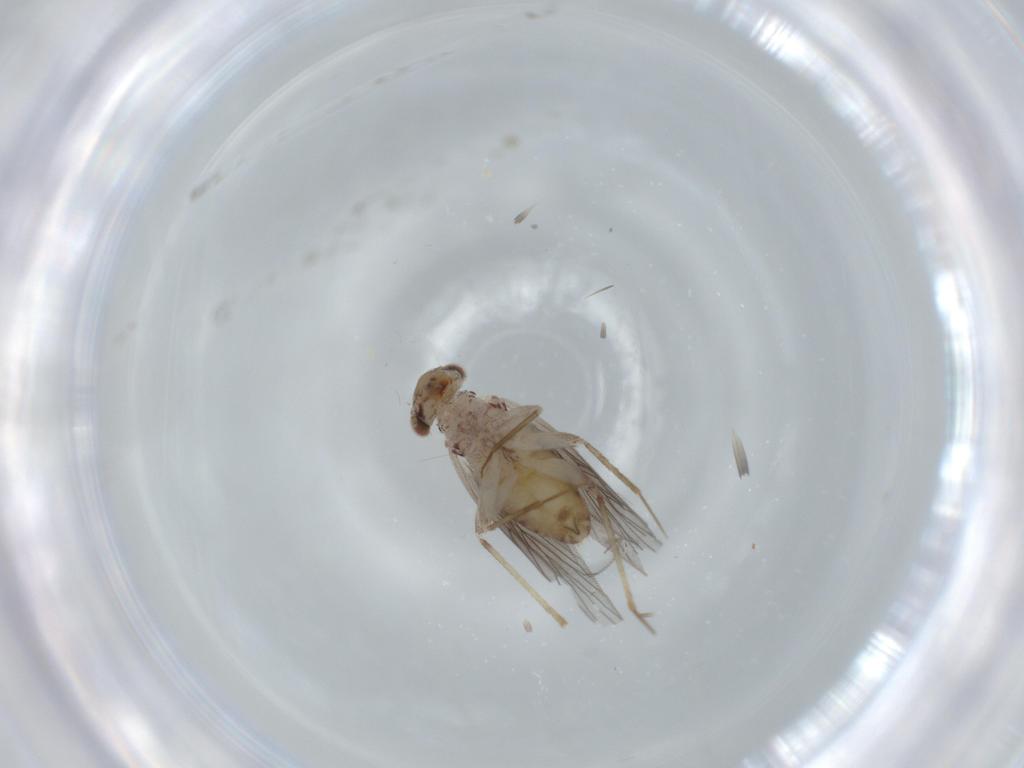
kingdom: Animalia
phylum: Arthropoda
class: Insecta
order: Psocodea
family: Lepidopsocidae
